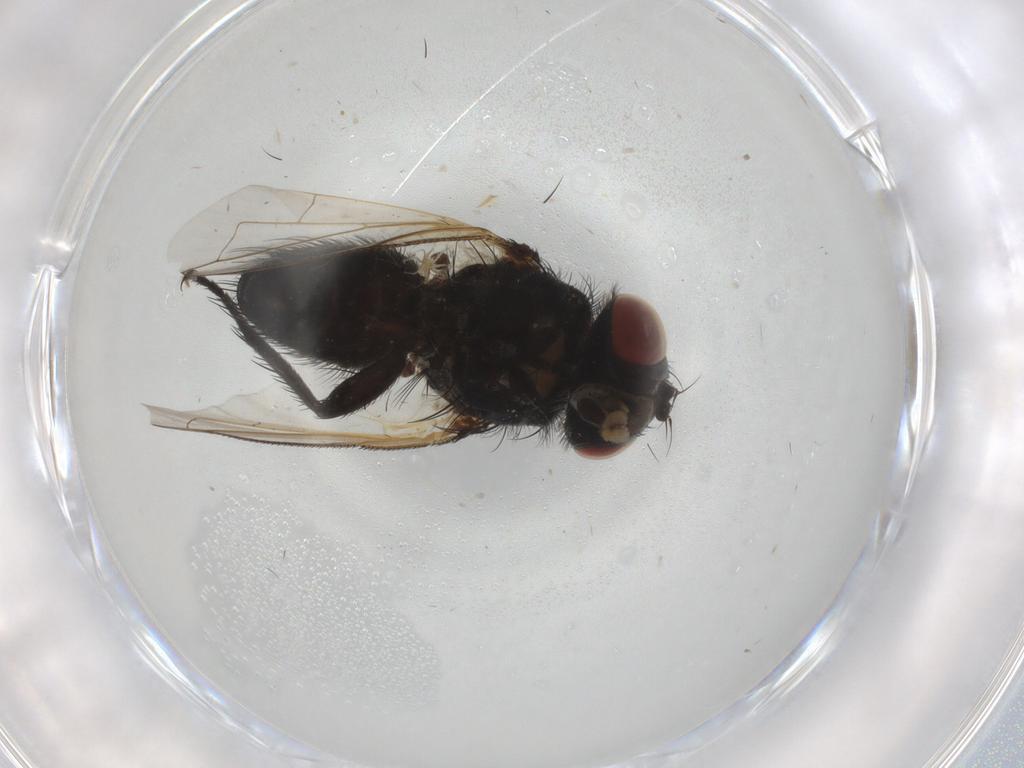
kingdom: Animalia
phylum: Arthropoda
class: Insecta
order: Diptera
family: Tachinidae
